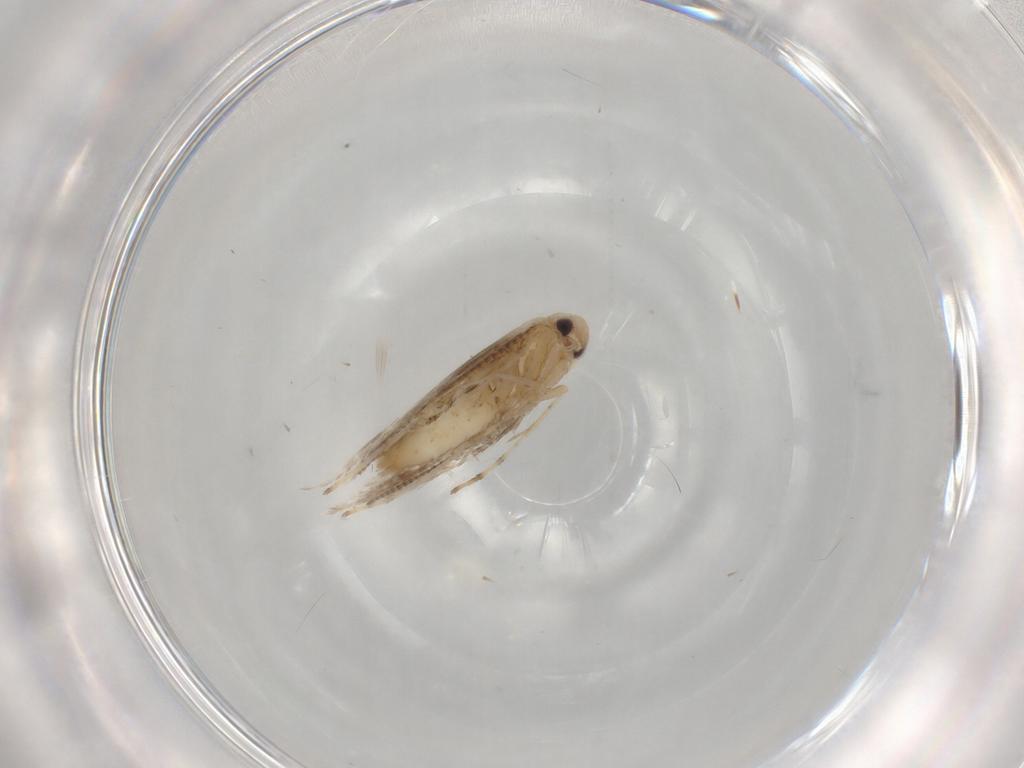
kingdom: Animalia
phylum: Arthropoda
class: Insecta
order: Lepidoptera
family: Gracillariidae
